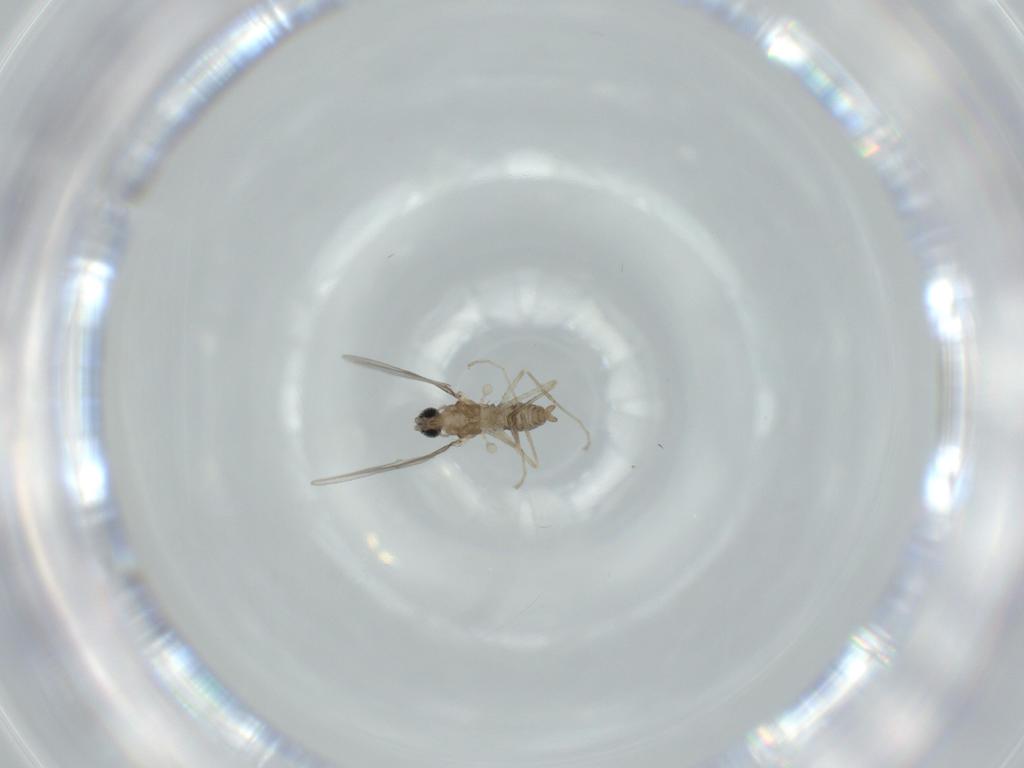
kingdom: Animalia
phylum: Arthropoda
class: Insecta
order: Diptera
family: Cecidomyiidae
